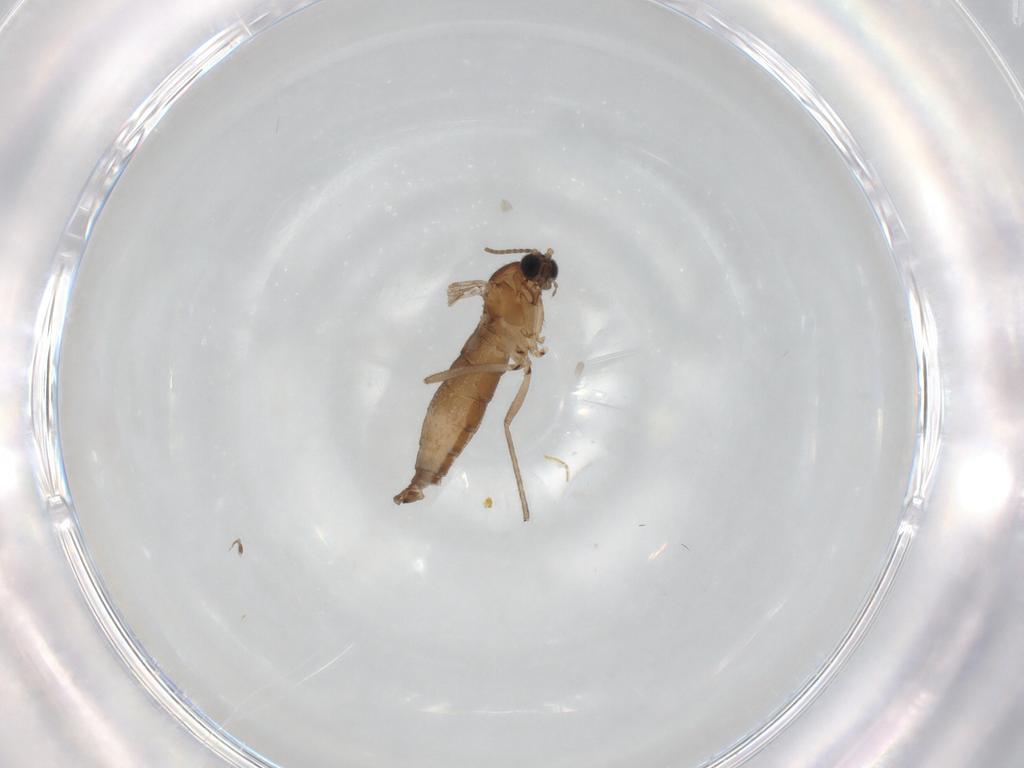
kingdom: Animalia
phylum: Arthropoda
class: Insecta
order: Diptera
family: Sciaridae
